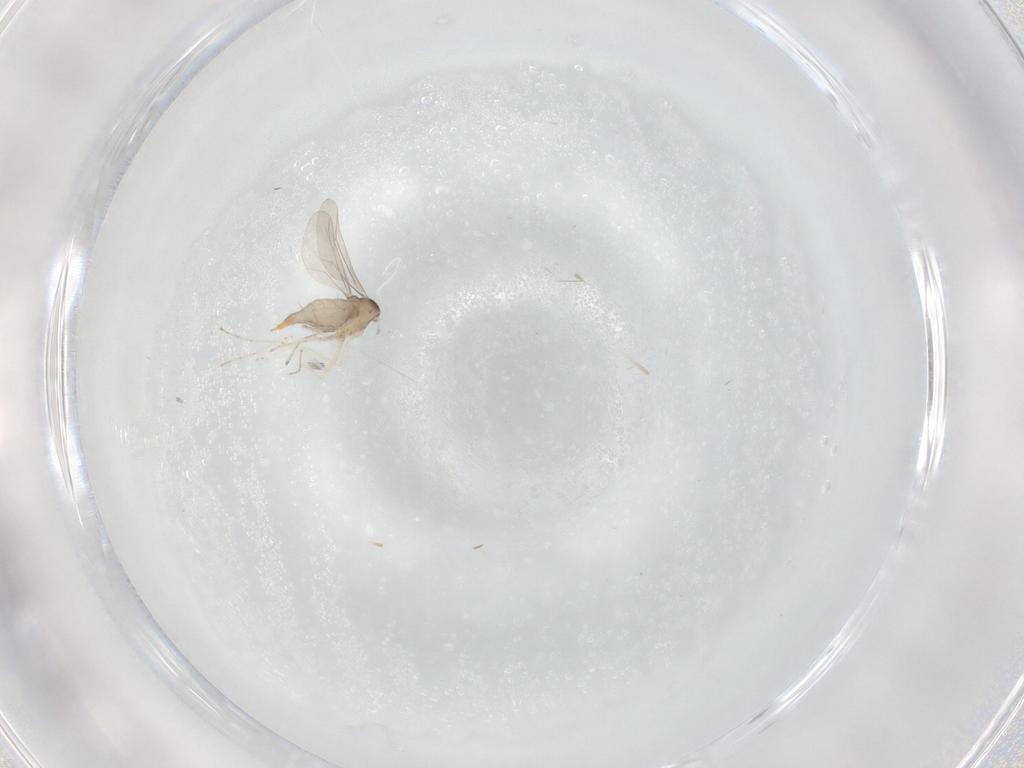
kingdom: Animalia
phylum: Arthropoda
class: Insecta
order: Diptera
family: Cecidomyiidae
